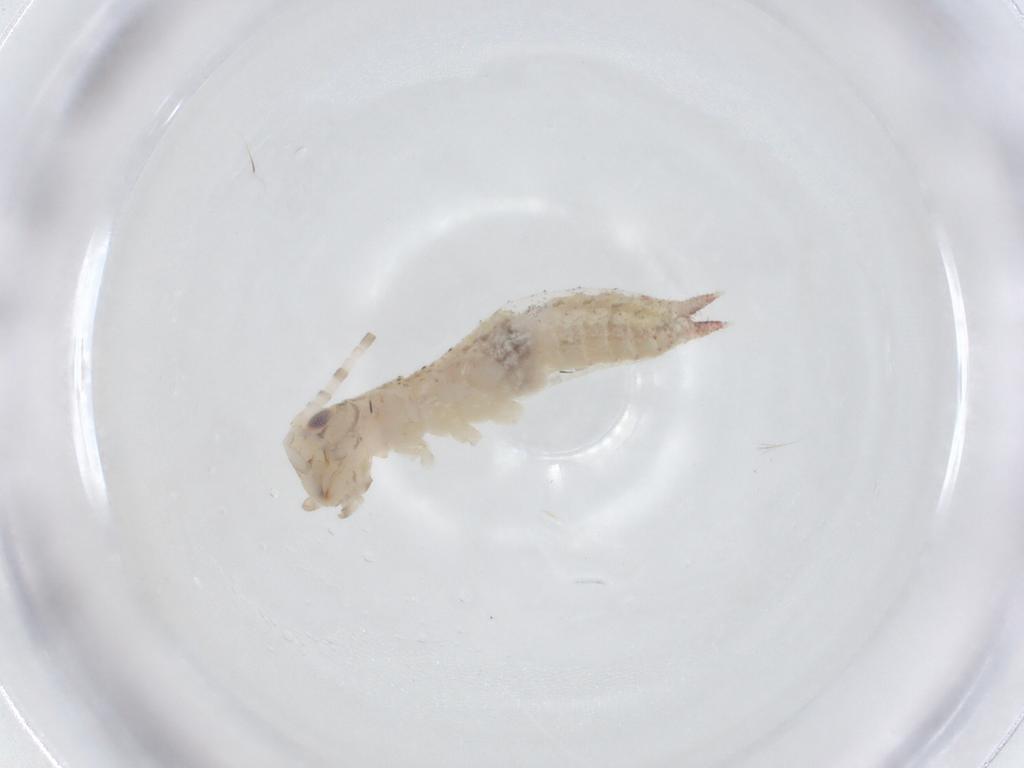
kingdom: Animalia
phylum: Arthropoda
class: Insecta
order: Orthoptera
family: Oecanthidae
